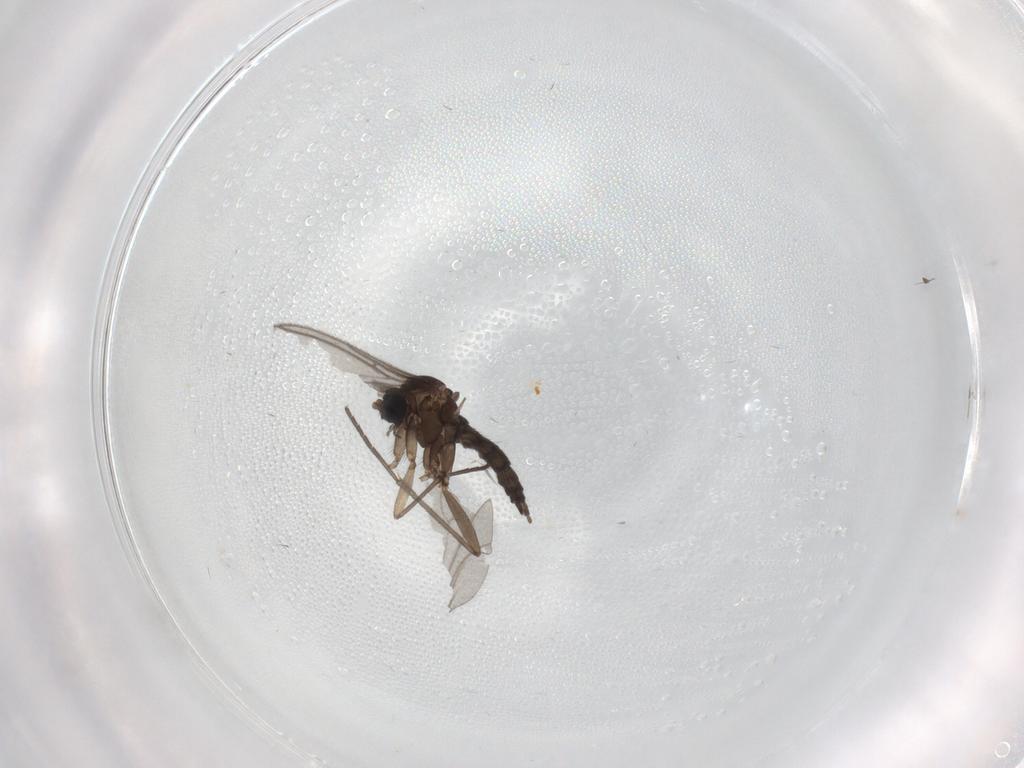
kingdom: Animalia
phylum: Arthropoda
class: Insecta
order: Diptera
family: Sciaridae
